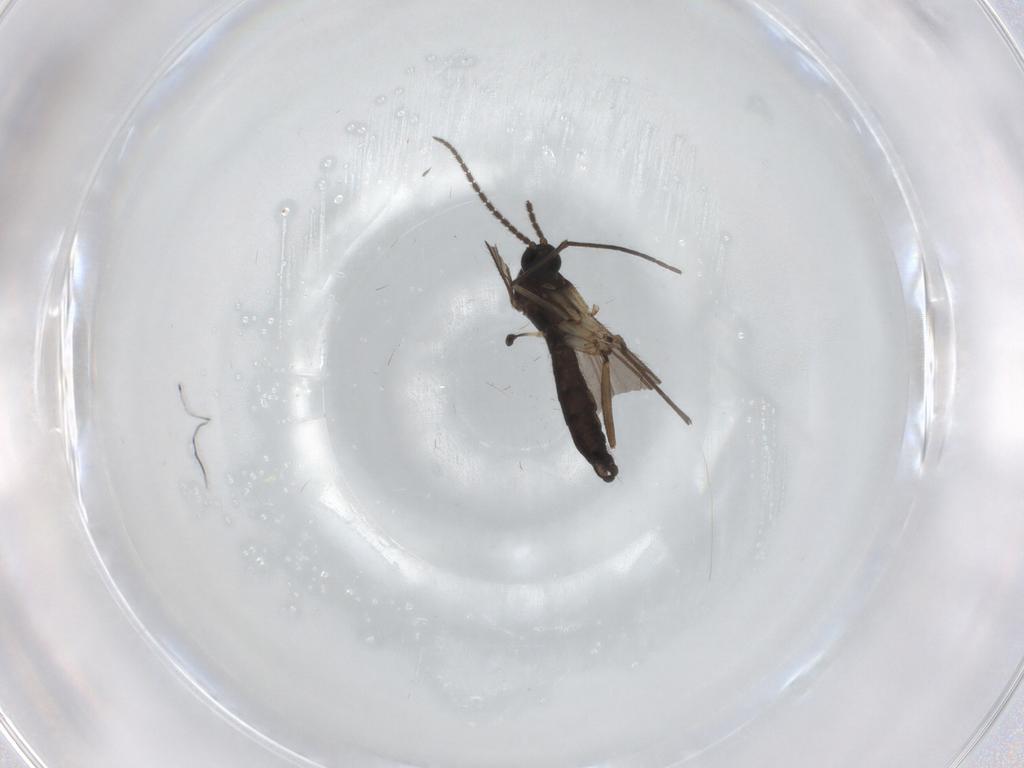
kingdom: Animalia
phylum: Arthropoda
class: Insecta
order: Diptera
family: Sciaridae
